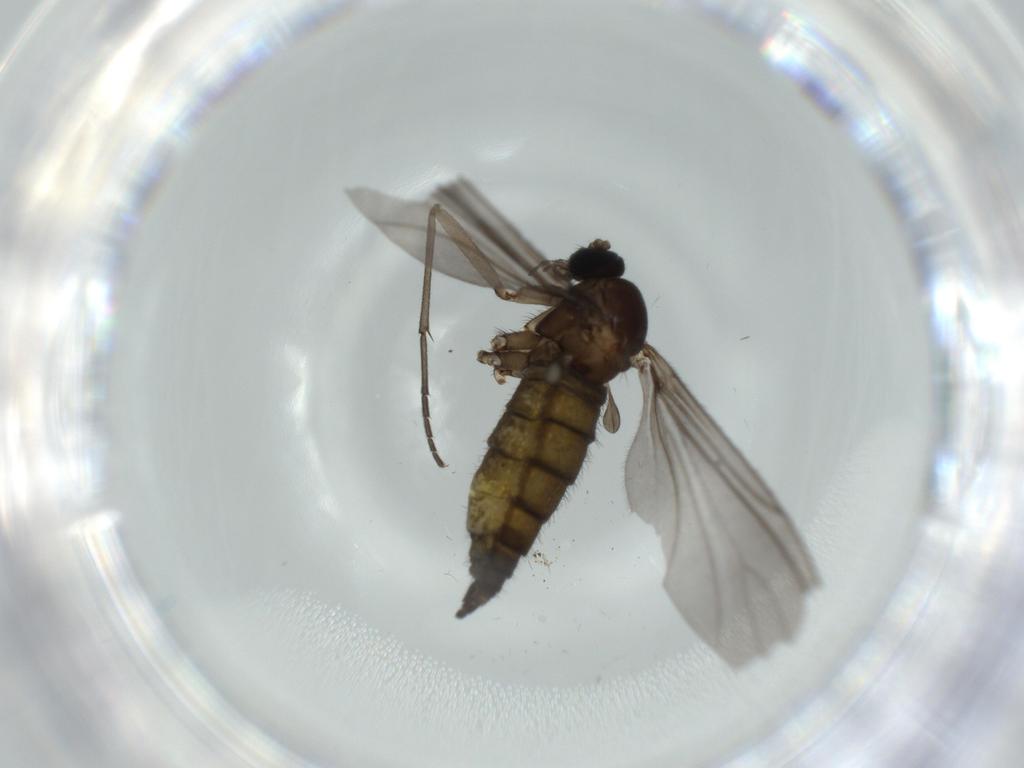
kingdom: Animalia
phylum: Arthropoda
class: Insecta
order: Diptera
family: Sciaridae
